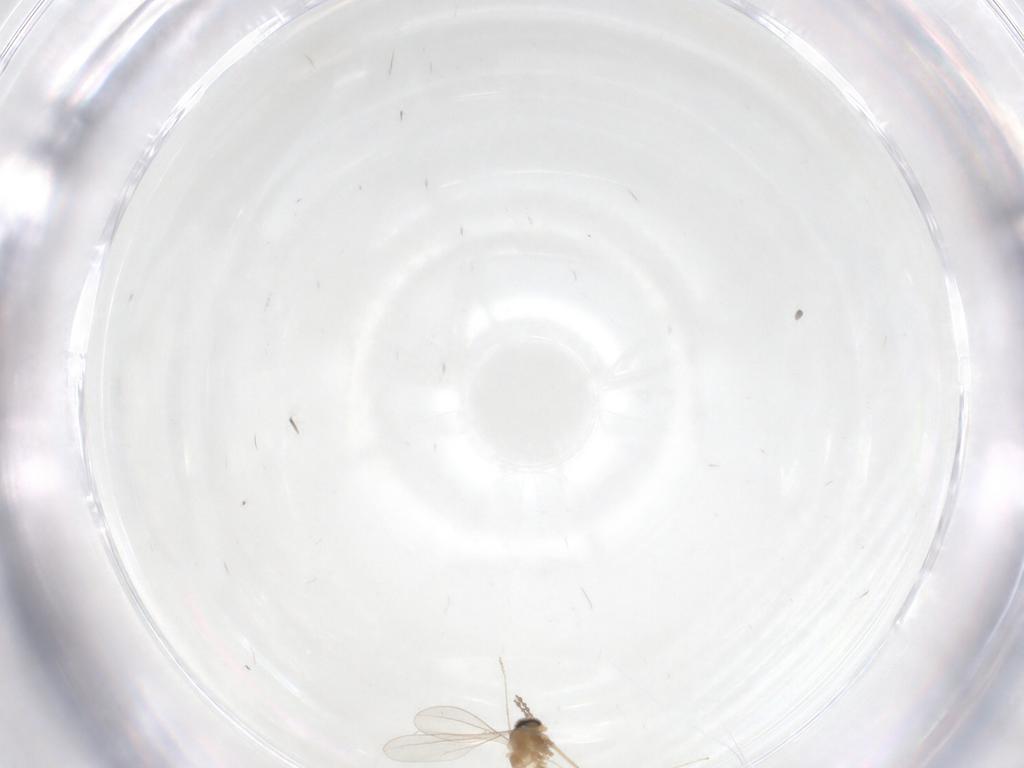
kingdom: Animalia
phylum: Arthropoda
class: Insecta
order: Diptera
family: Cecidomyiidae
